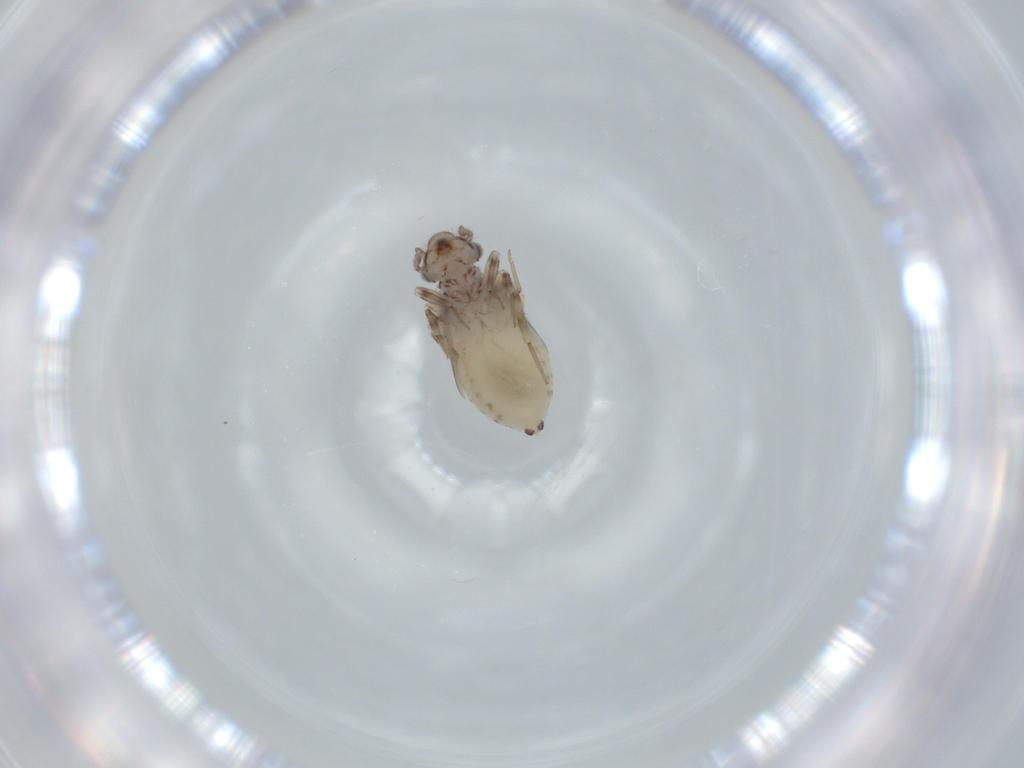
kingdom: Animalia
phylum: Arthropoda
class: Insecta
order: Psocodea
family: Lepidopsocidae
